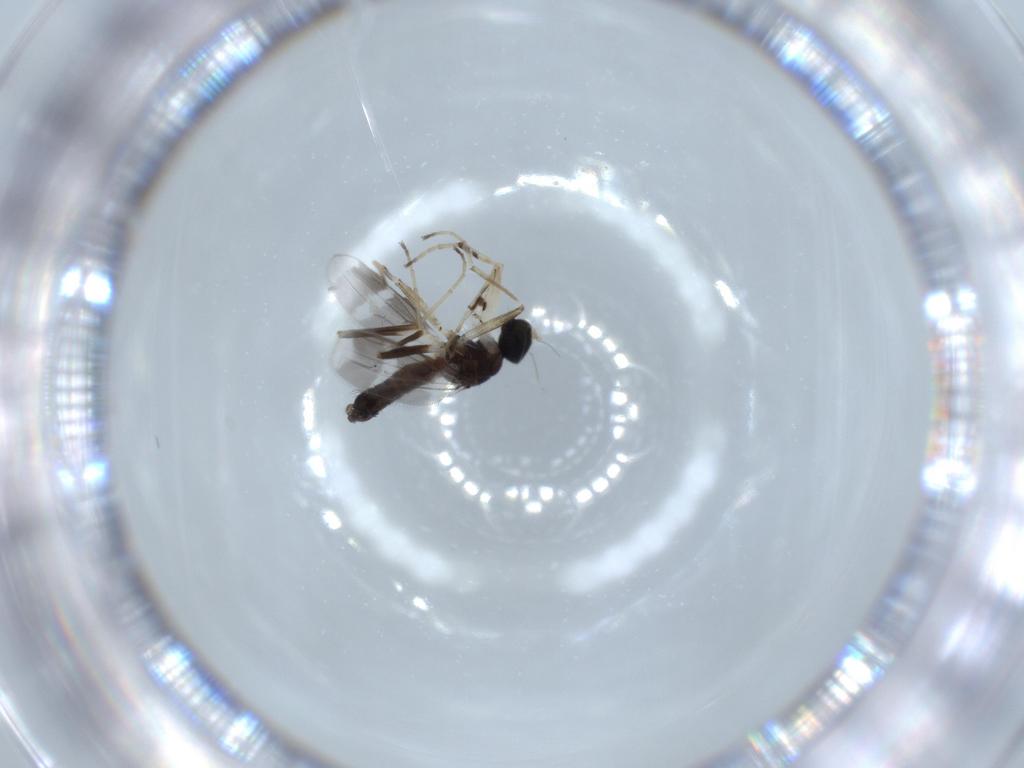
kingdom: Animalia
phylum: Arthropoda
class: Insecta
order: Diptera
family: Hybotidae
